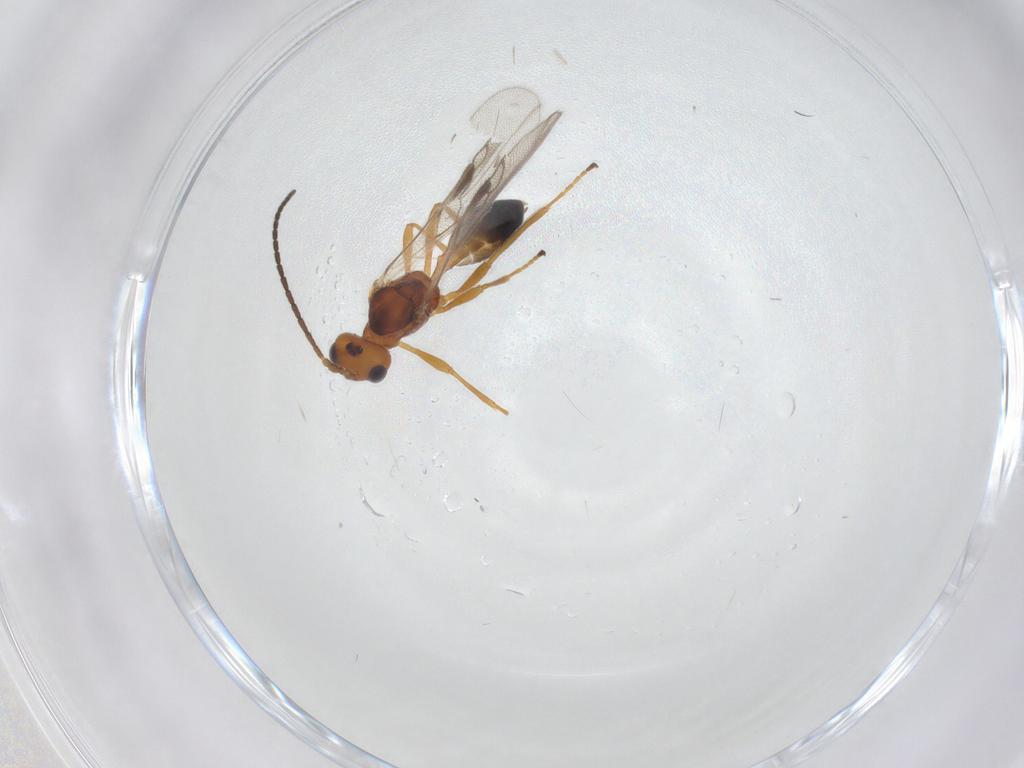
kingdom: Animalia
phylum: Arthropoda
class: Insecta
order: Hymenoptera
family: Braconidae
